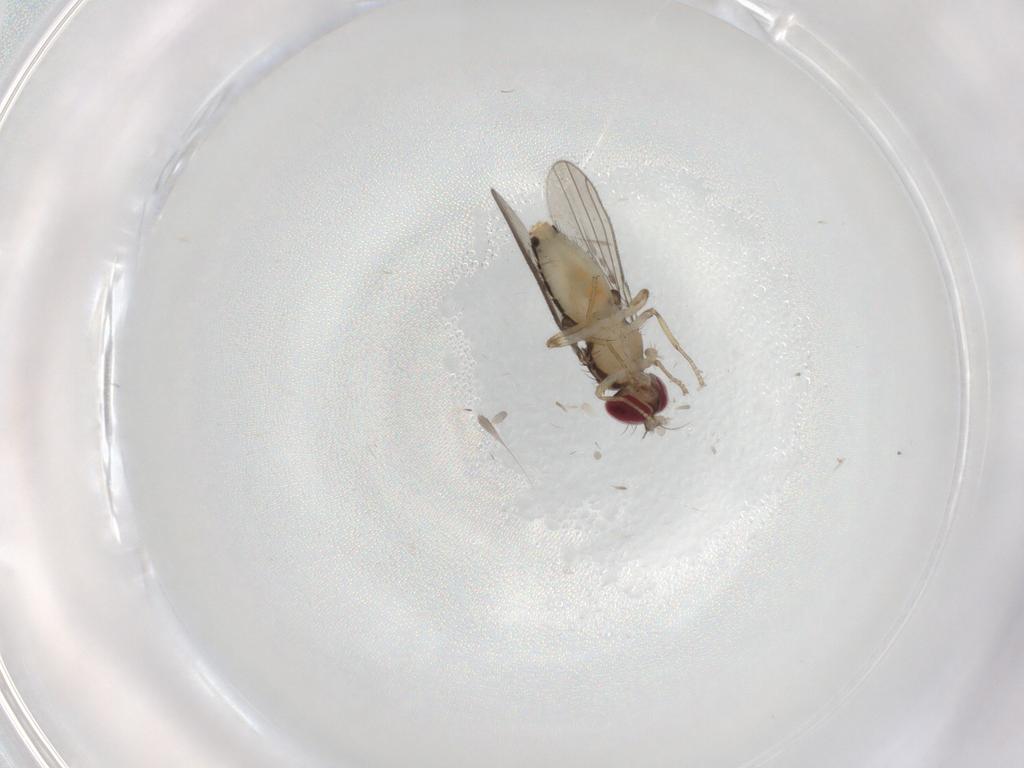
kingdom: Animalia
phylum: Arthropoda
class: Insecta
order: Diptera
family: Anthomyzidae
